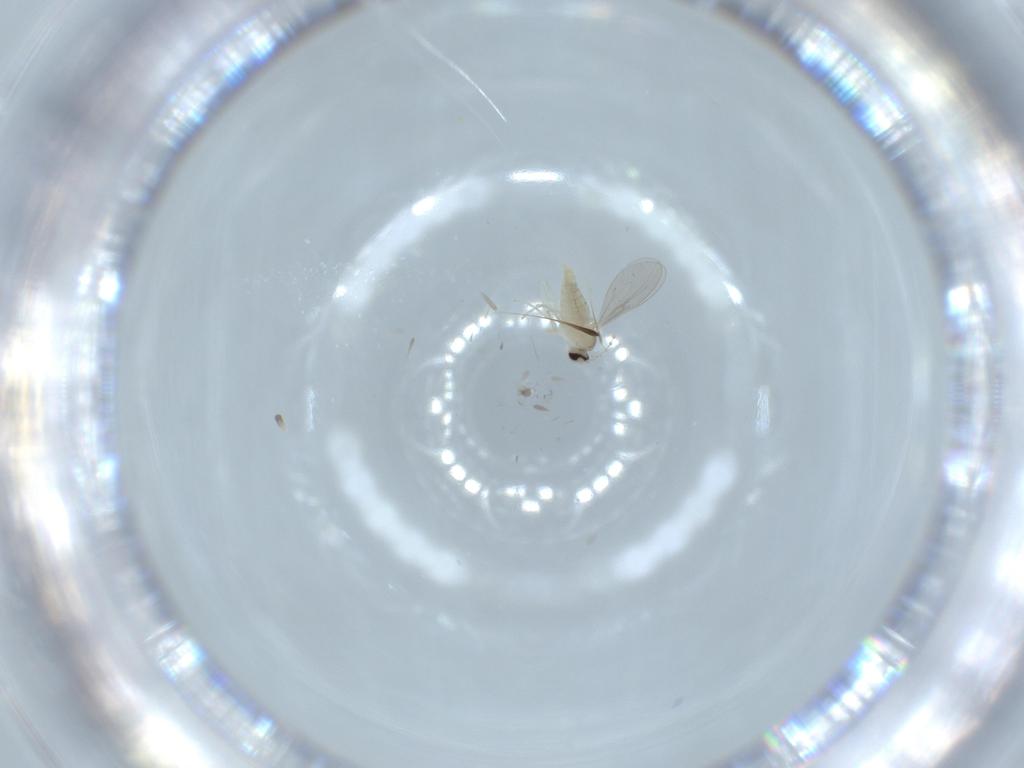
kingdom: Animalia
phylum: Arthropoda
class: Insecta
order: Diptera
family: Cecidomyiidae
